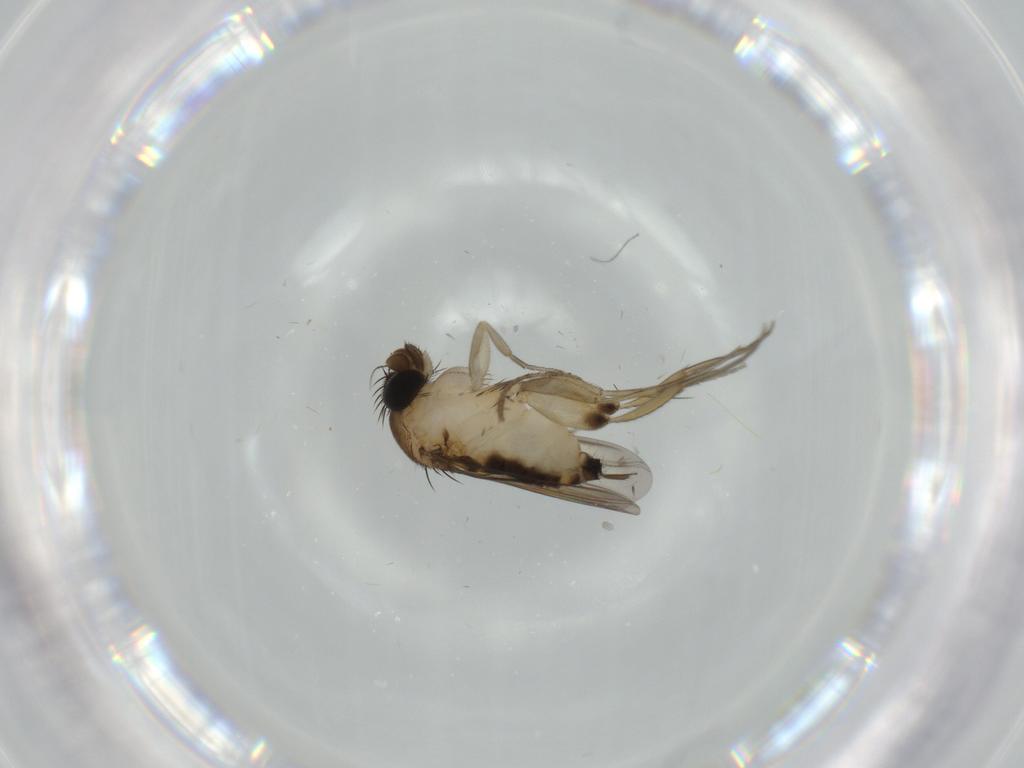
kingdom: Animalia
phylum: Arthropoda
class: Insecta
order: Diptera
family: Phoridae
